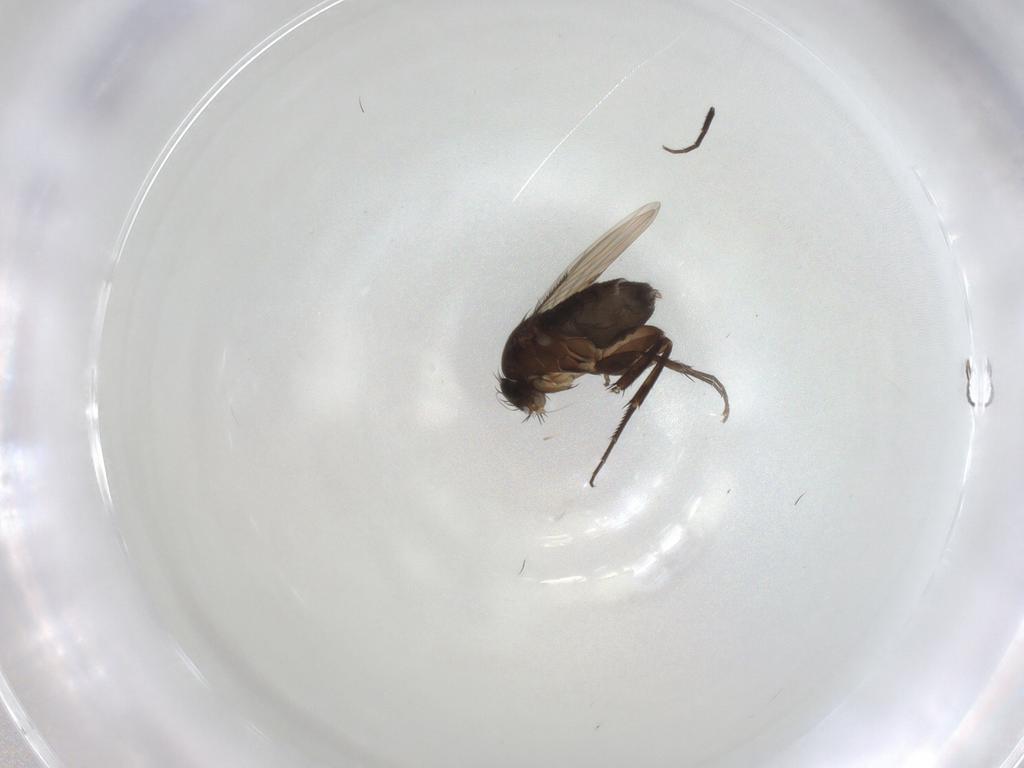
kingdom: Animalia
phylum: Arthropoda
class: Insecta
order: Diptera
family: Phoridae
